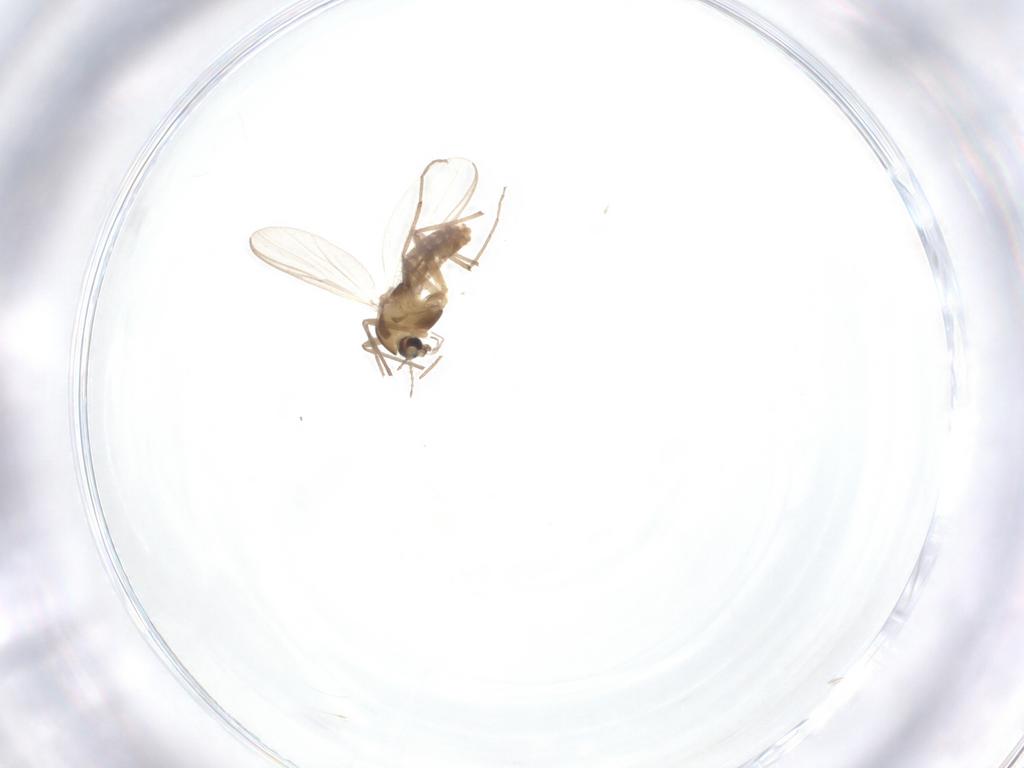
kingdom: Animalia
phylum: Arthropoda
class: Insecta
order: Diptera
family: Chironomidae
